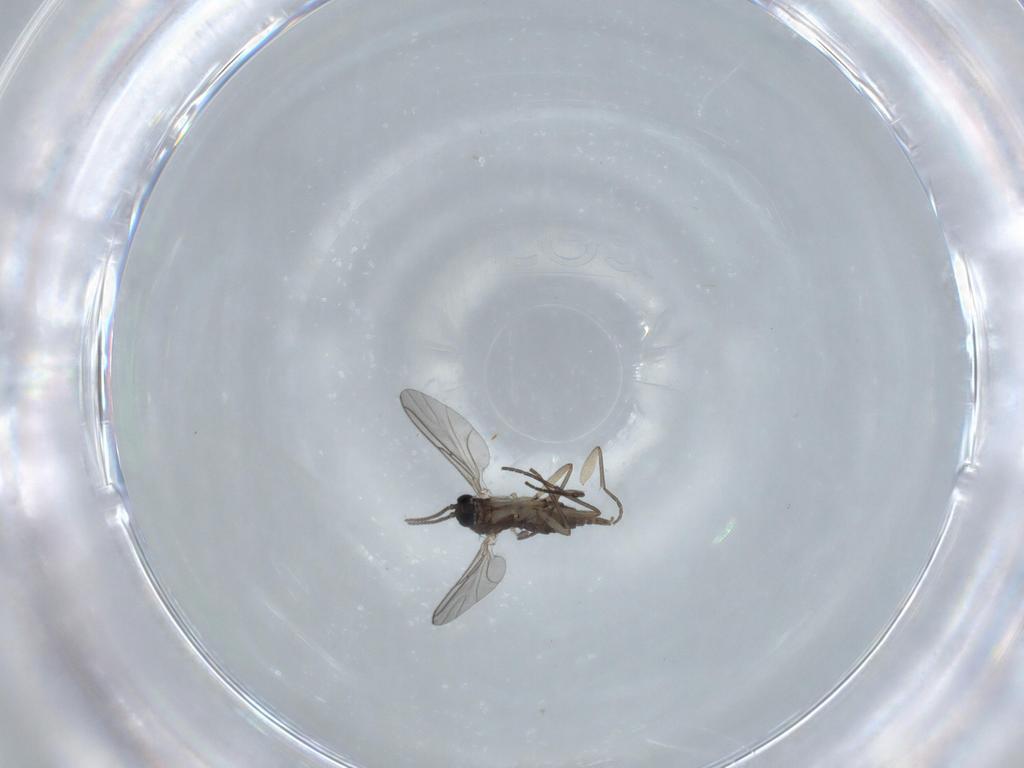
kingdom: Animalia
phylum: Arthropoda
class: Insecta
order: Diptera
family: Sciaridae
